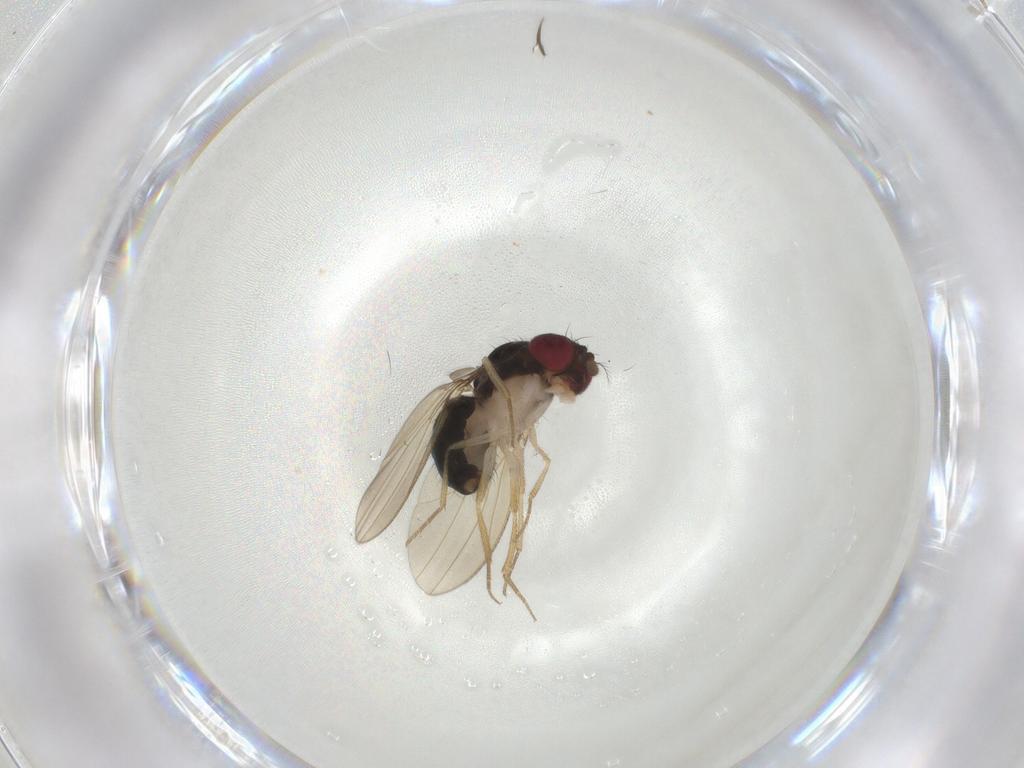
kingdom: Animalia
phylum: Arthropoda
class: Insecta
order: Diptera
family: Drosophilidae
